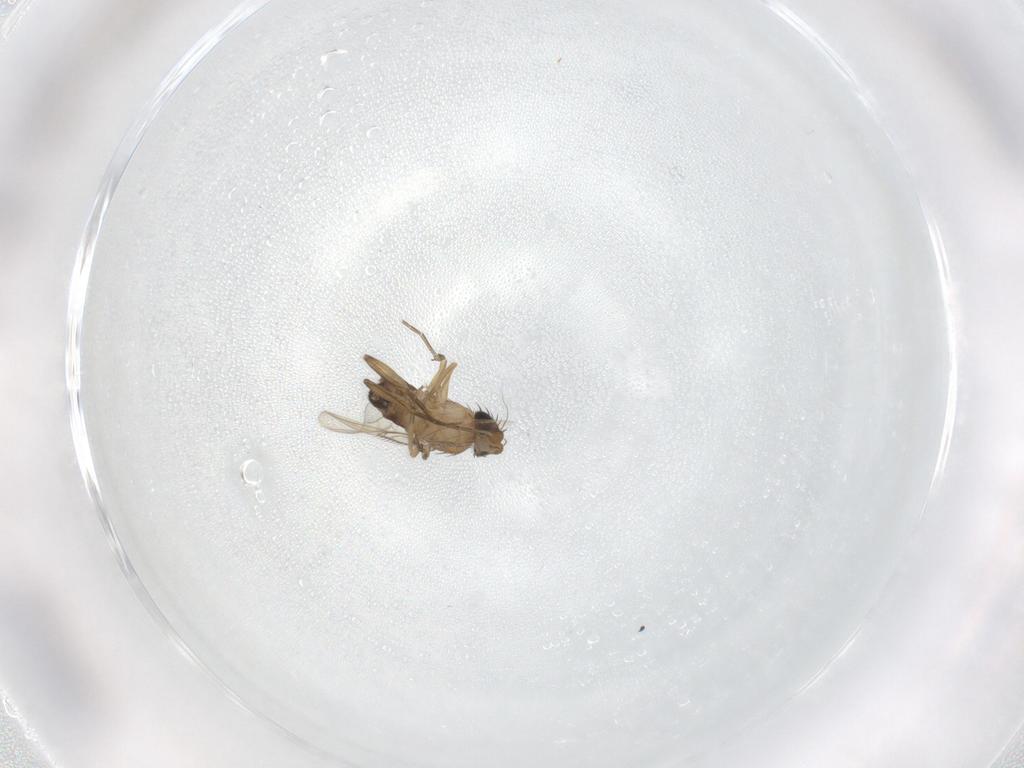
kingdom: Animalia
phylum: Arthropoda
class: Insecta
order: Diptera
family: Phoridae
